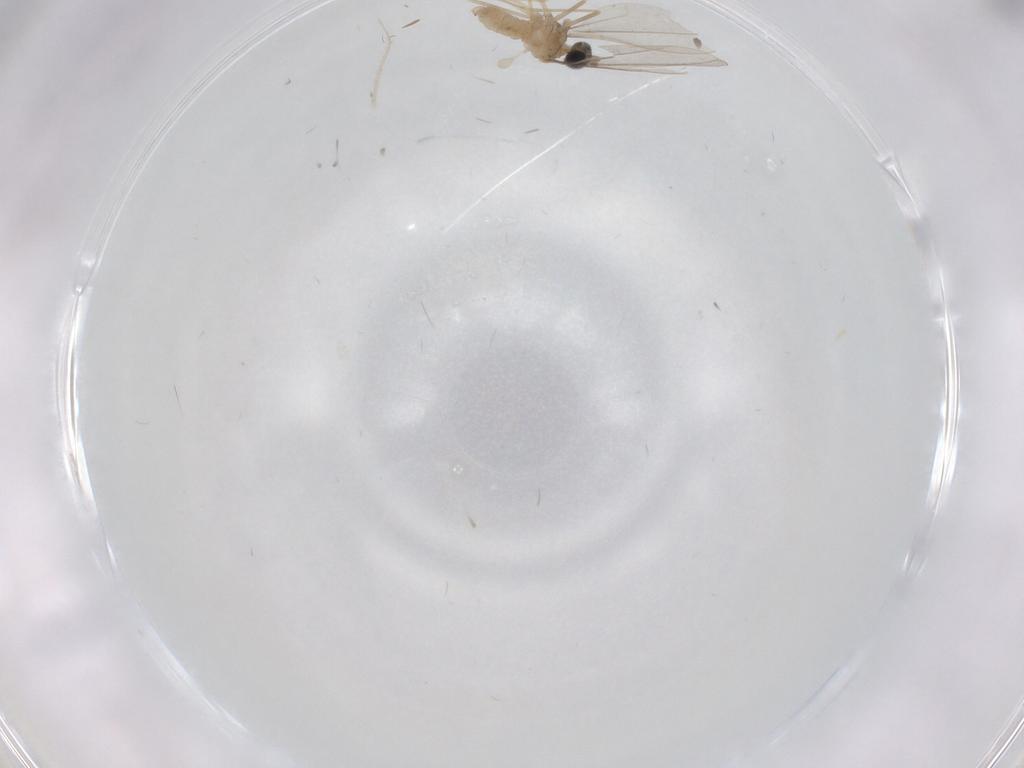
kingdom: Animalia
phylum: Arthropoda
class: Insecta
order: Diptera
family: Cecidomyiidae
